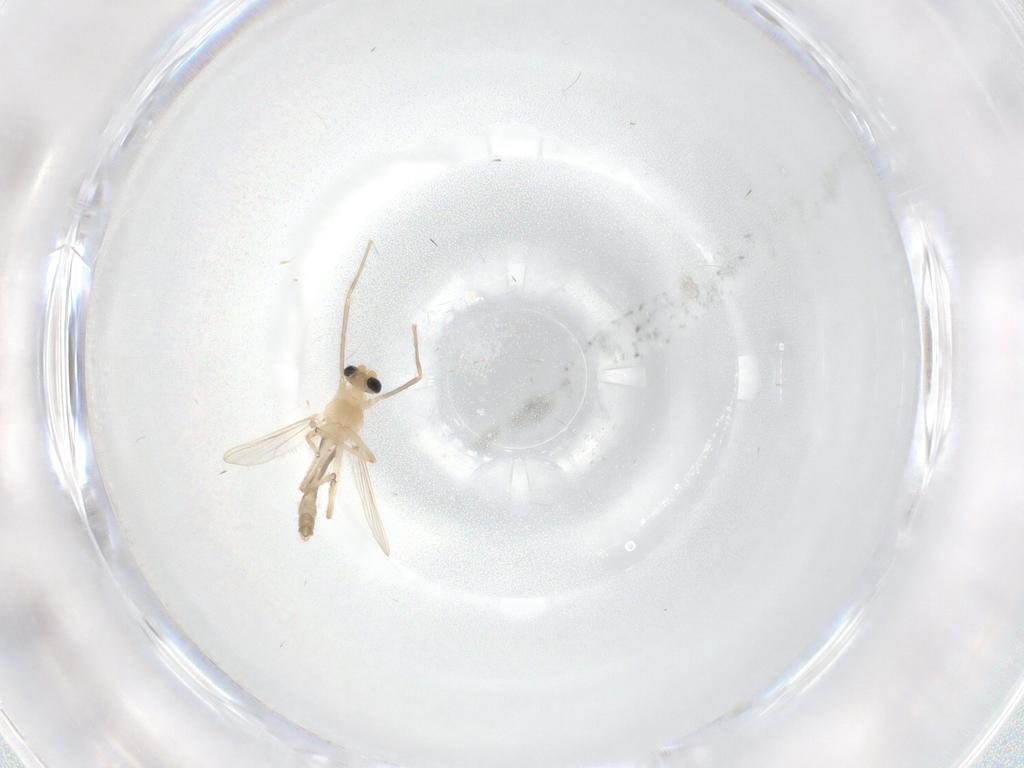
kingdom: Animalia
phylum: Arthropoda
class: Insecta
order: Diptera
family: Chironomidae
